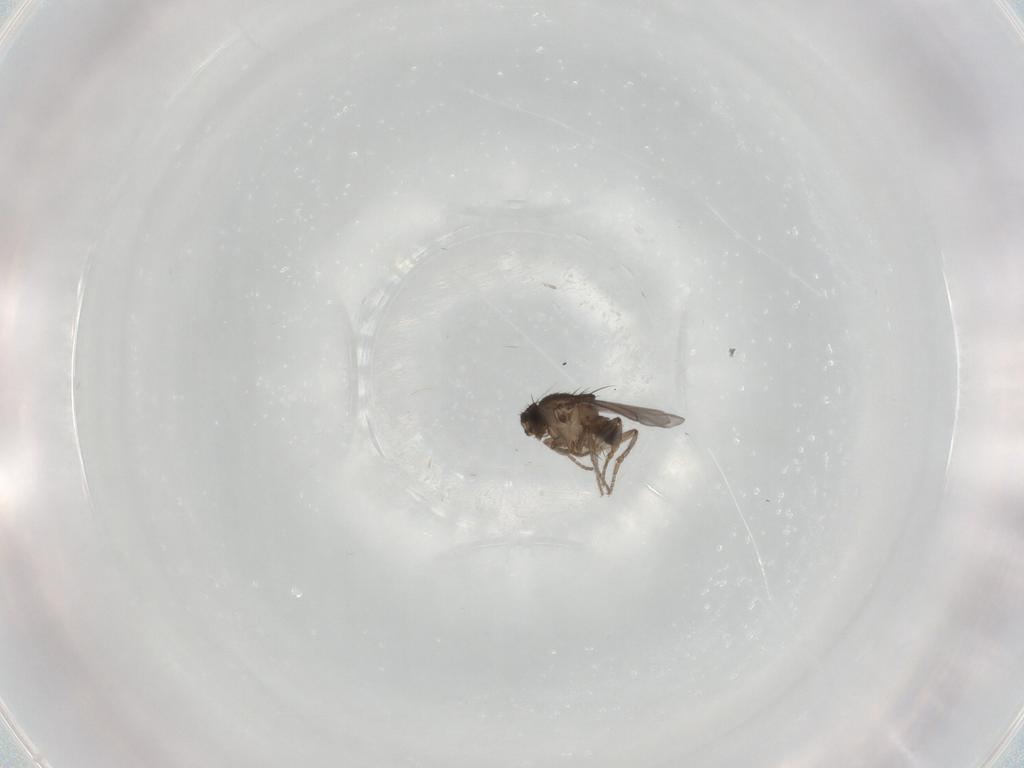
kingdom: Animalia
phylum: Arthropoda
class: Insecta
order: Diptera
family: Sphaeroceridae
